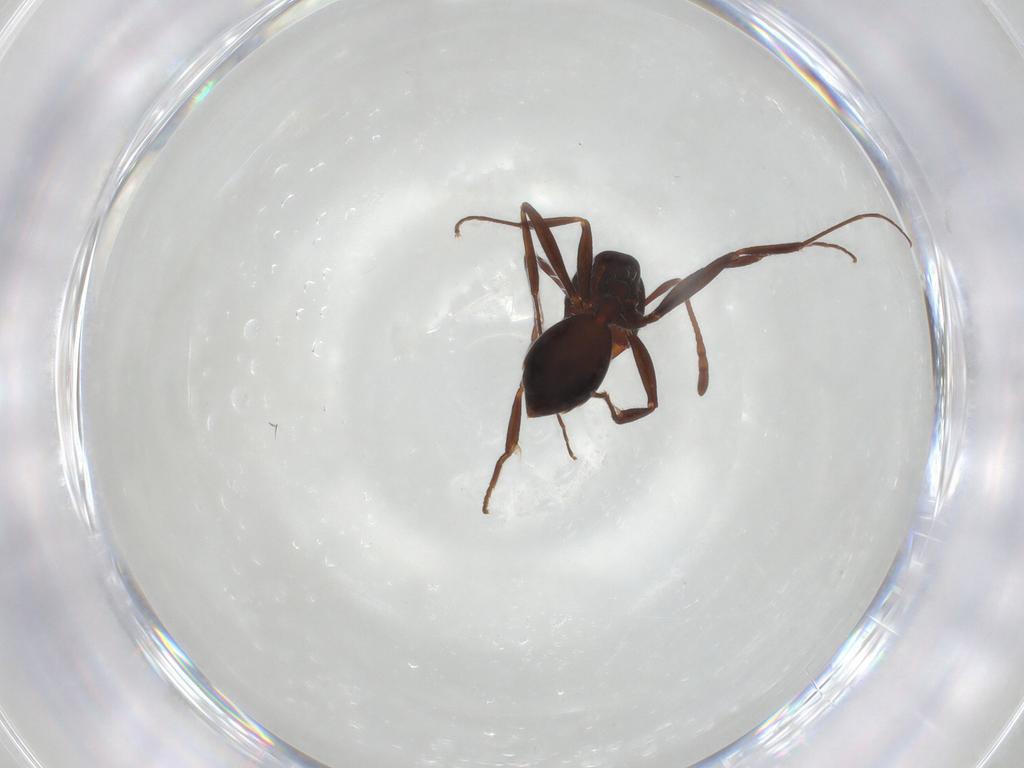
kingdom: Animalia
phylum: Arthropoda
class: Insecta
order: Hymenoptera
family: Formicidae
